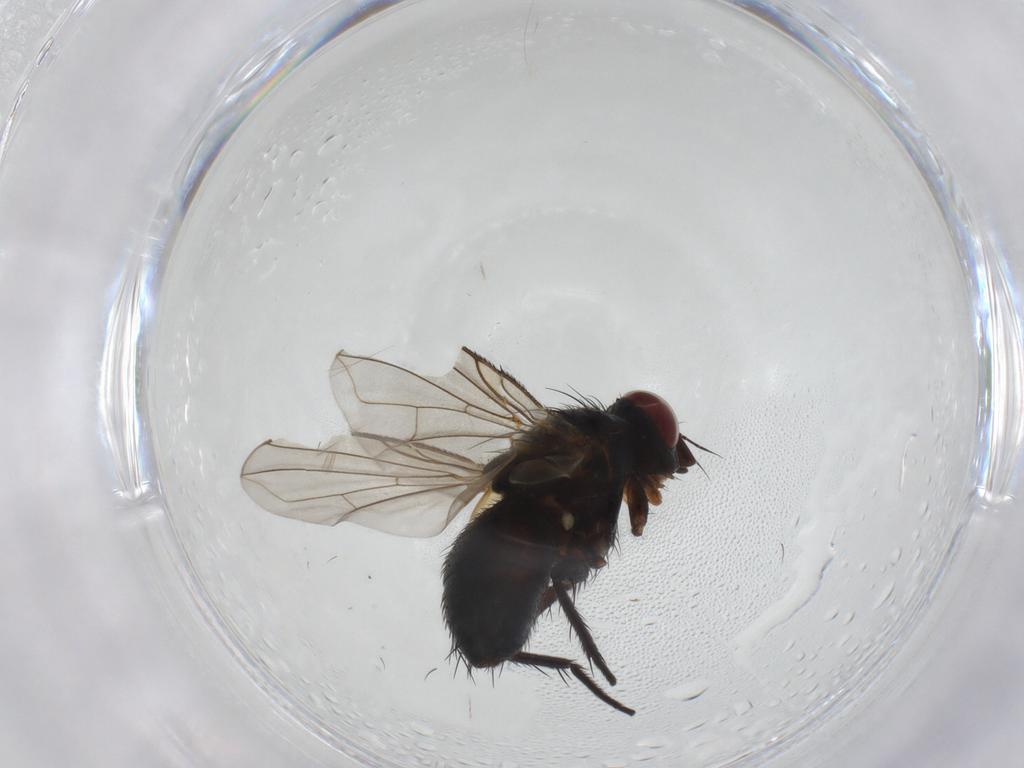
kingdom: Animalia
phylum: Arthropoda
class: Insecta
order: Diptera
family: Tachinidae
